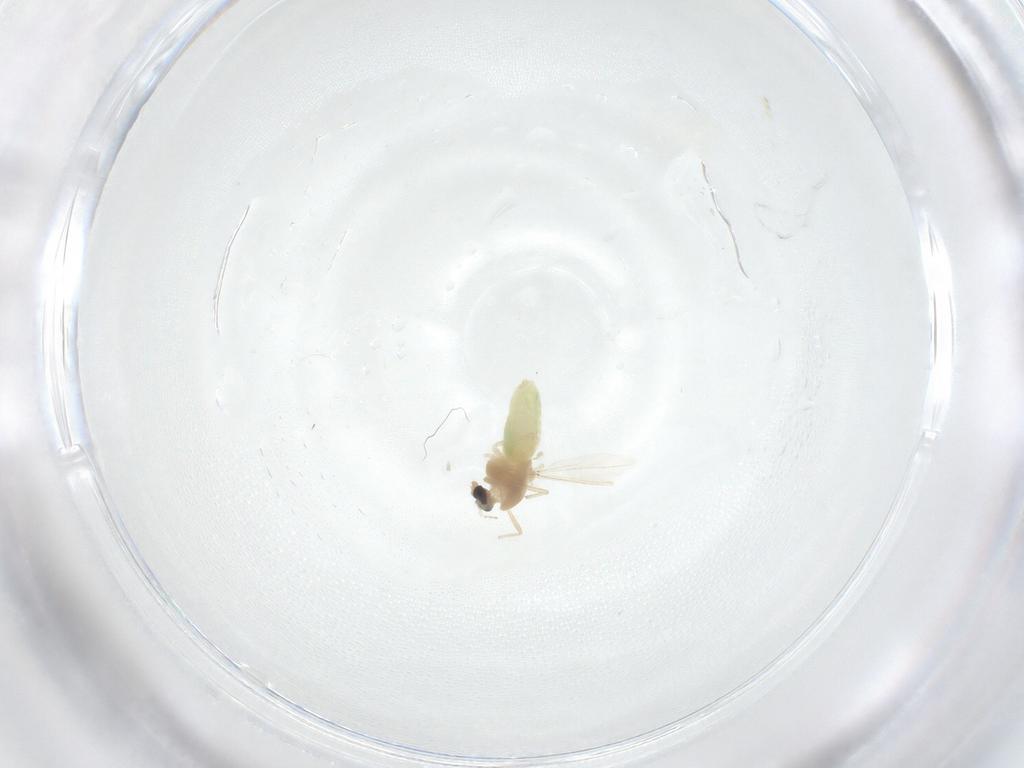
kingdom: Animalia
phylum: Arthropoda
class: Insecta
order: Diptera
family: Chironomidae
